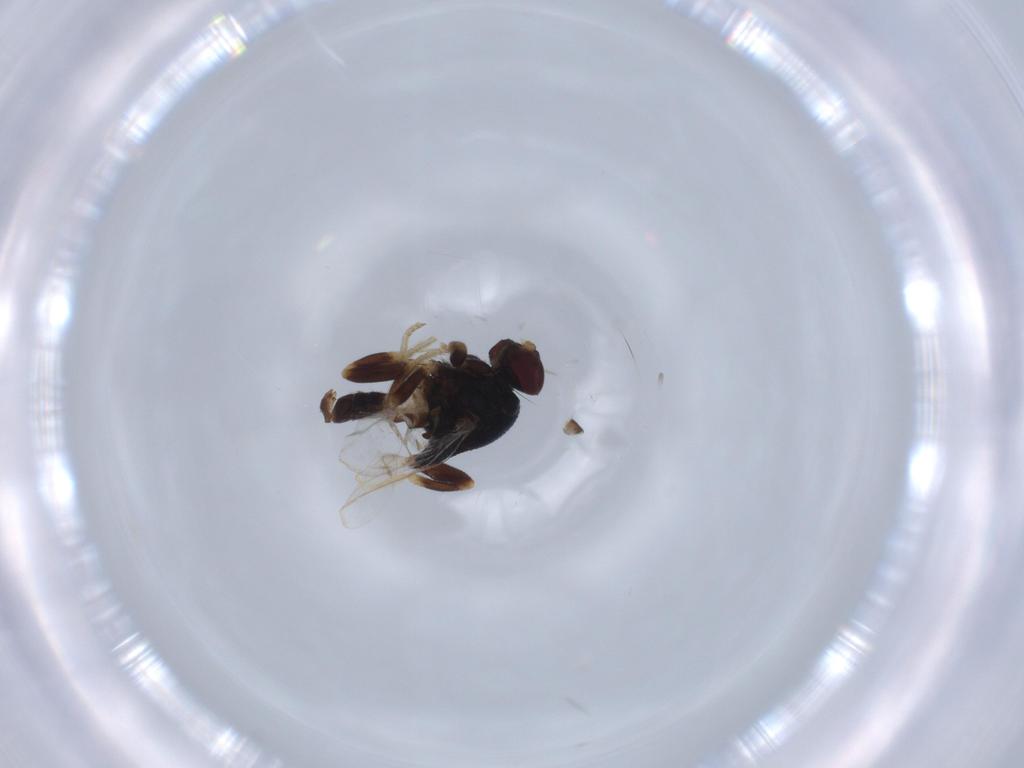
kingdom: Animalia
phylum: Arthropoda
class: Insecta
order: Diptera
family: Chloropidae
